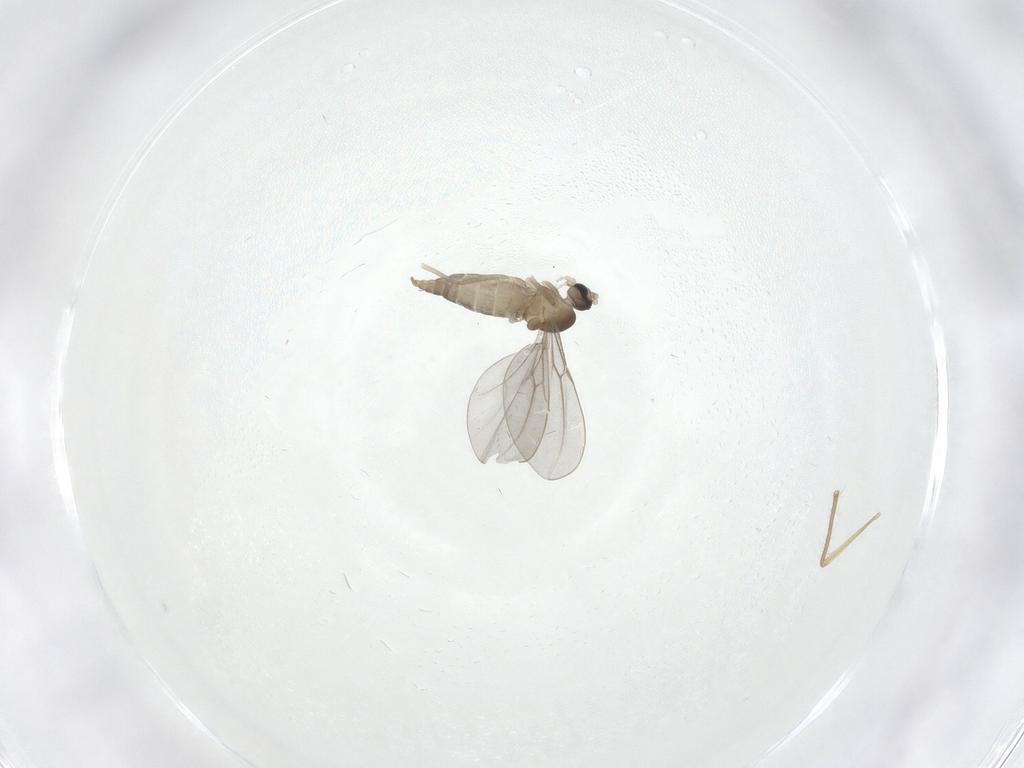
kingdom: Animalia
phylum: Arthropoda
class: Insecta
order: Diptera
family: Cecidomyiidae
